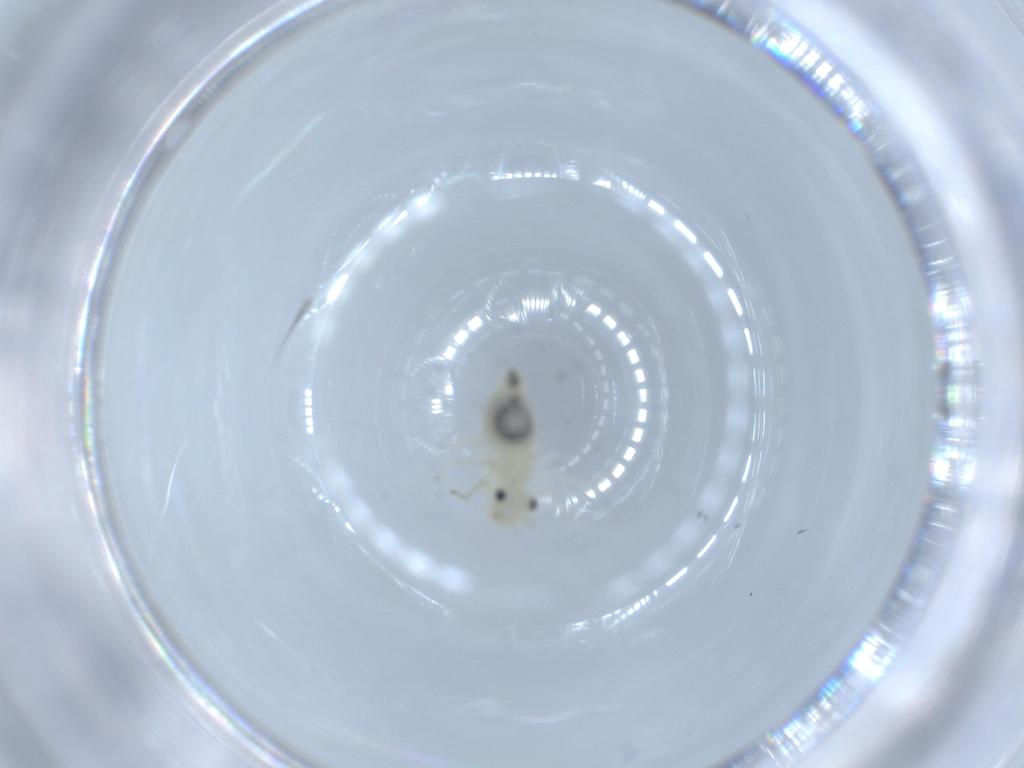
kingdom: Animalia
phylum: Arthropoda
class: Insecta
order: Psocodea
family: Caeciliusidae
